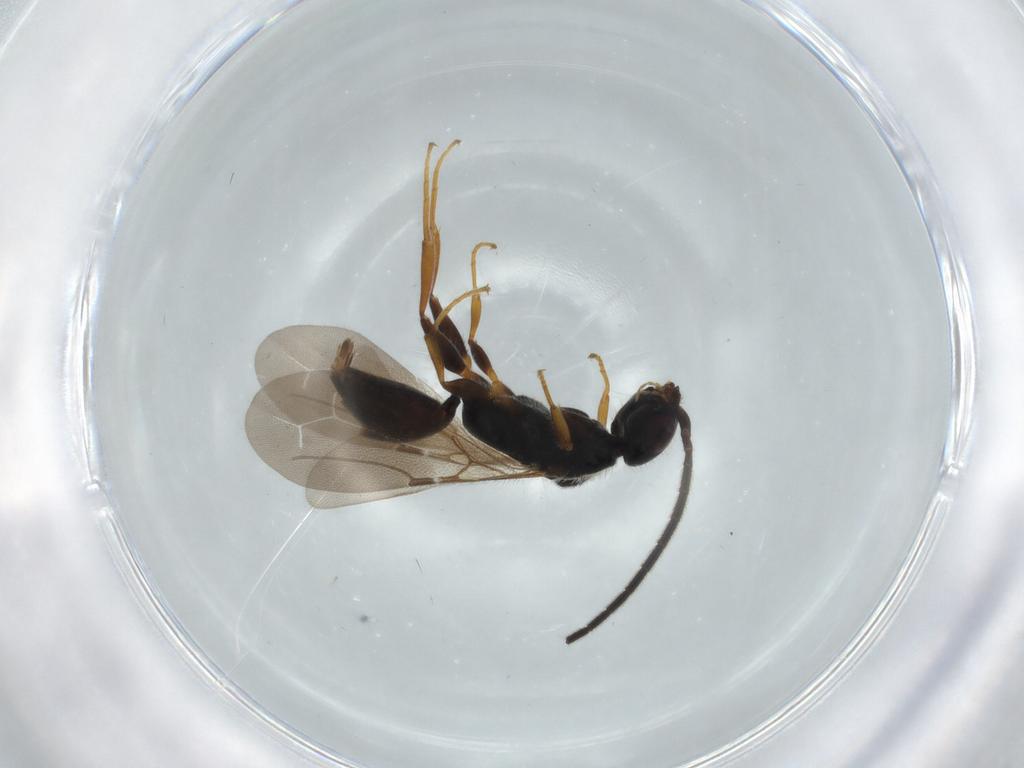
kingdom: Animalia
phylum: Arthropoda
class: Insecta
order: Hymenoptera
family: Bethylidae
